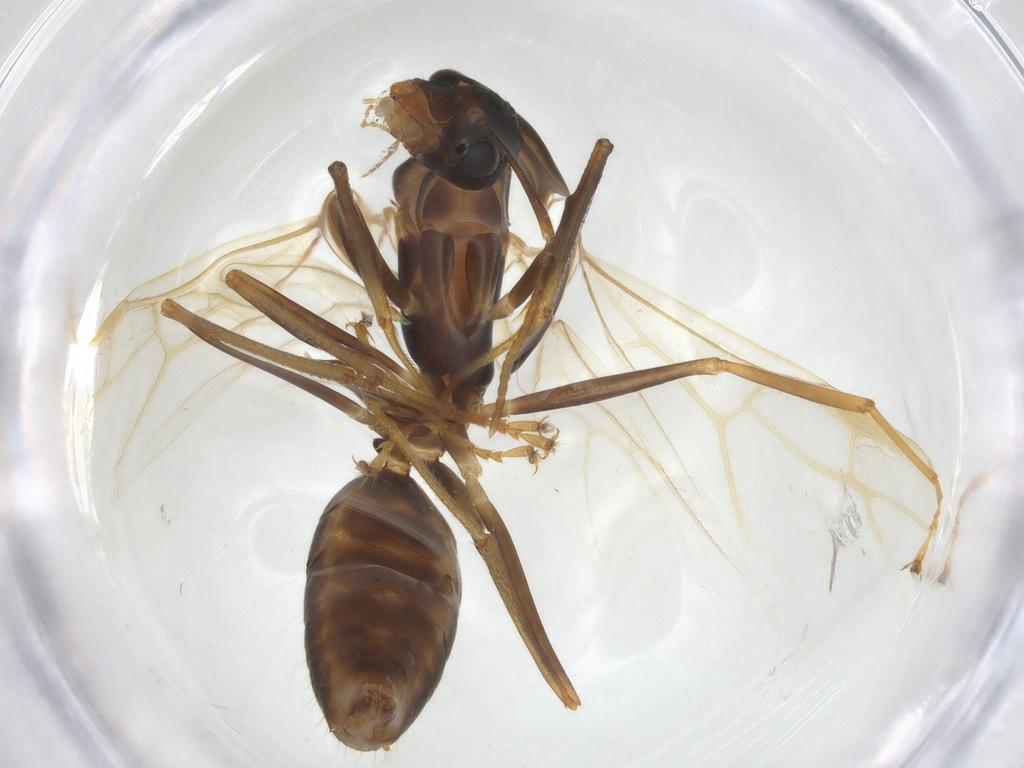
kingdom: Animalia
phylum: Arthropoda
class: Insecta
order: Hymenoptera
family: Formicidae
